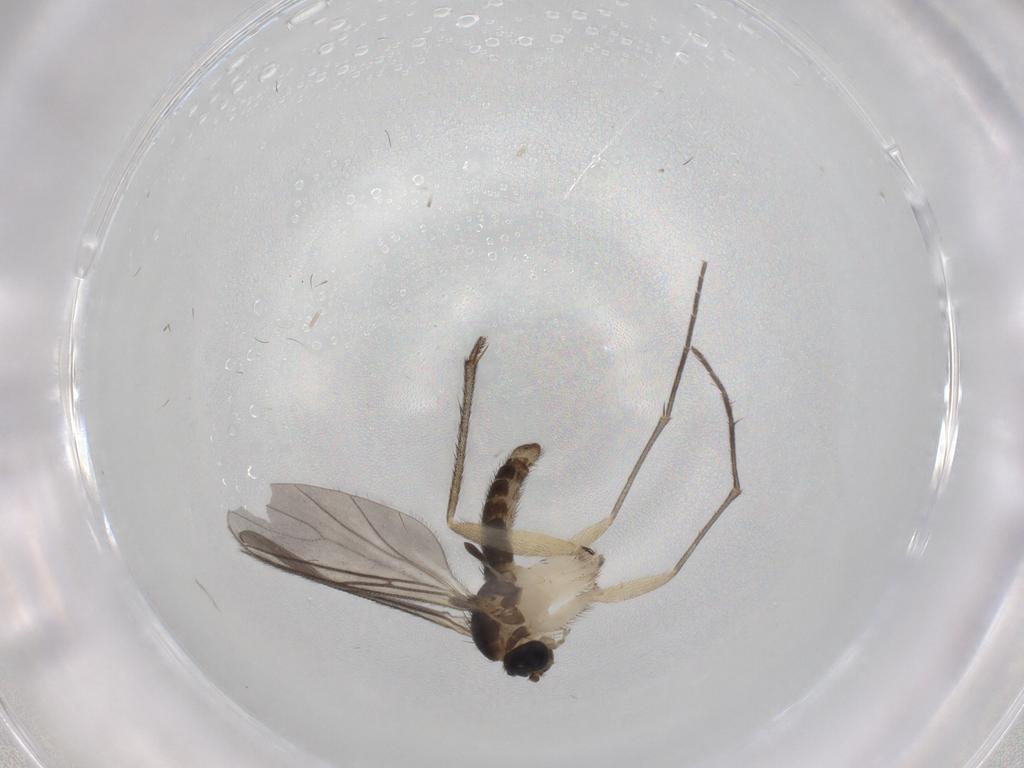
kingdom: Animalia
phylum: Arthropoda
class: Insecta
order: Diptera
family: Sciaridae
